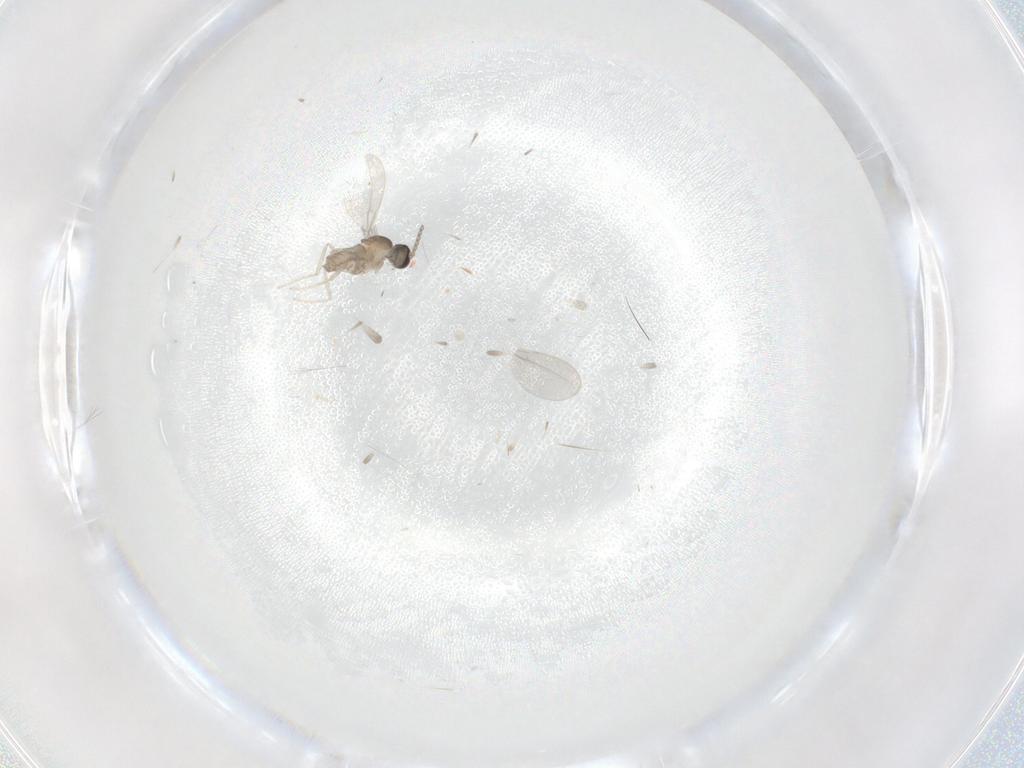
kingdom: Animalia
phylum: Arthropoda
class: Insecta
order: Diptera
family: Cecidomyiidae
